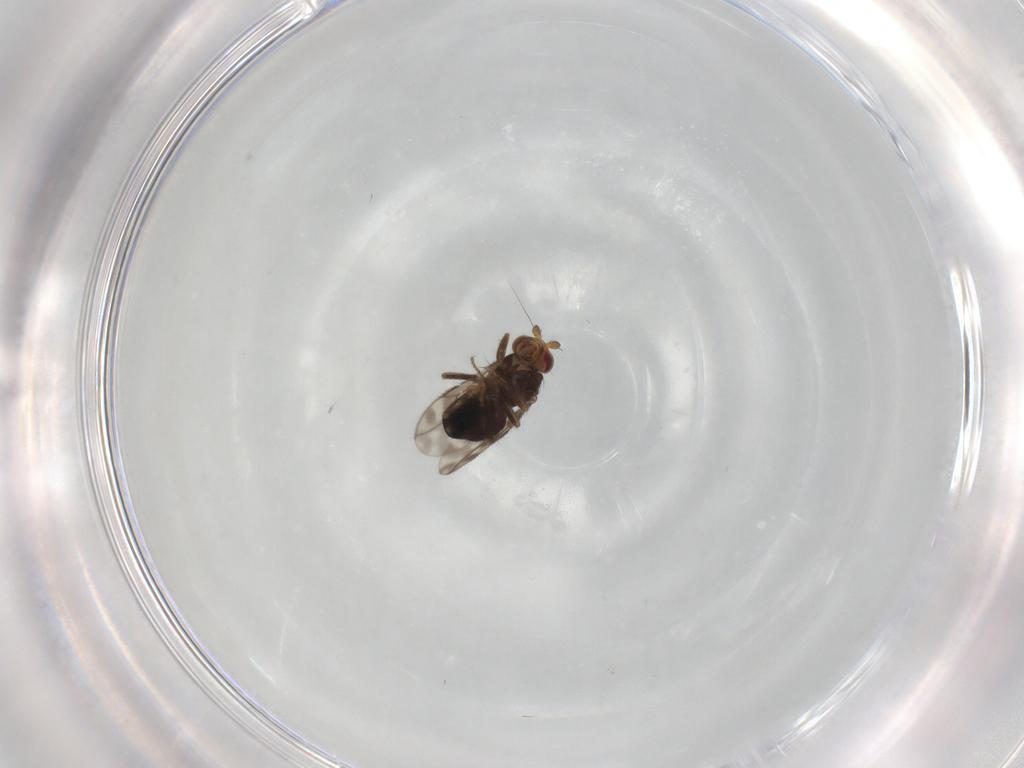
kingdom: Animalia
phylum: Arthropoda
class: Insecta
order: Diptera
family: Sphaeroceridae
